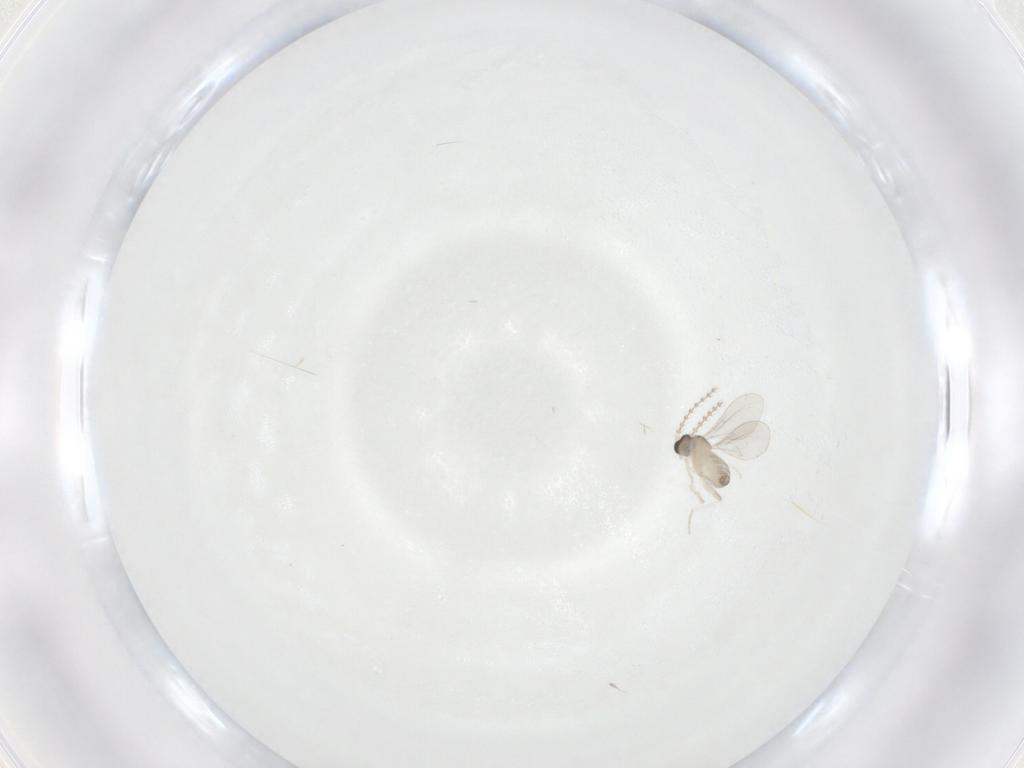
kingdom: Animalia
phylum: Arthropoda
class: Insecta
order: Diptera
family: Cecidomyiidae
